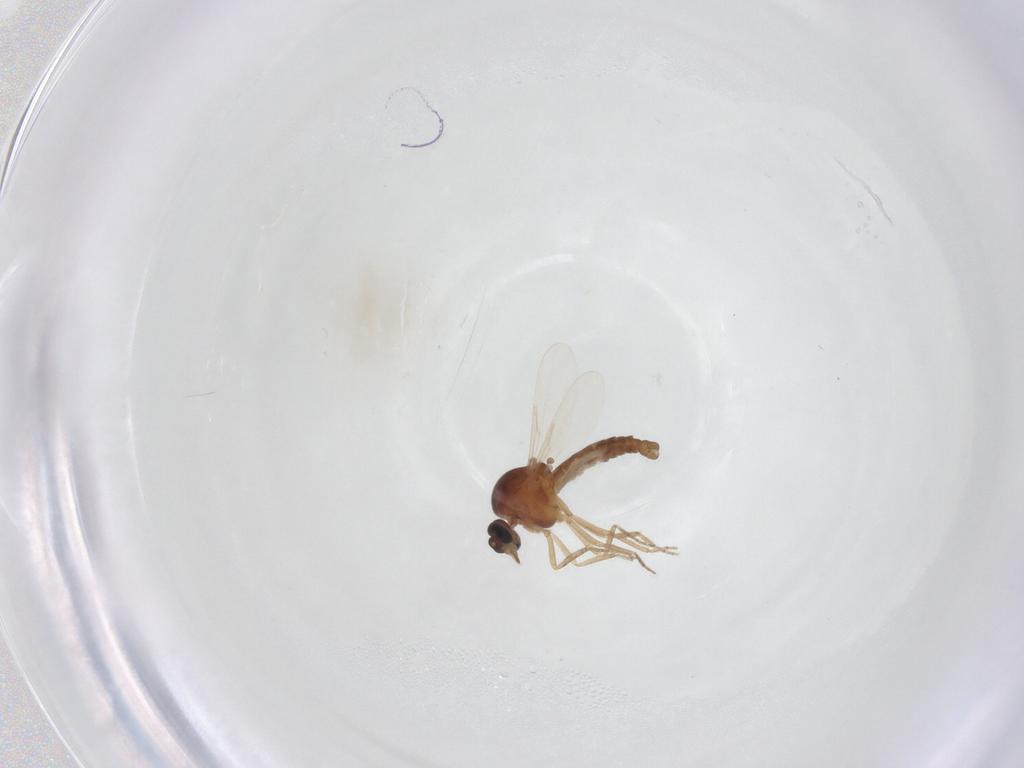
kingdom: Animalia
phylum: Arthropoda
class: Insecta
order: Diptera
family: Ceratopogonidae
